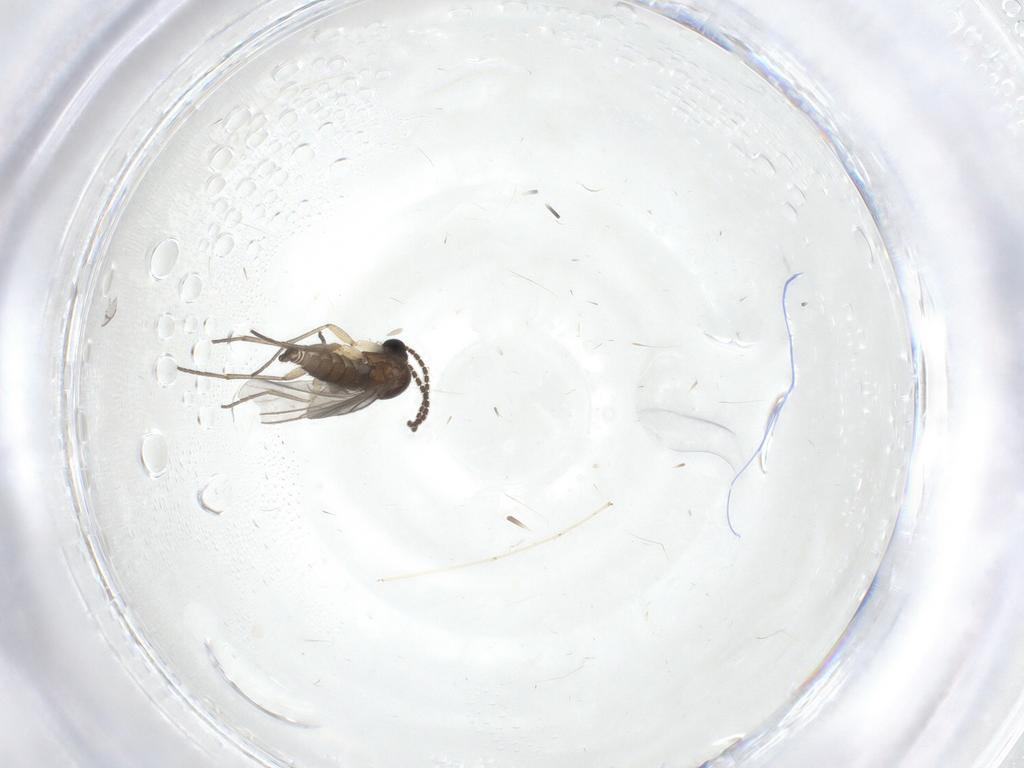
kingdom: Animalia
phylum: Arthropoda
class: Insecta
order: Diptera
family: Sciaridae
